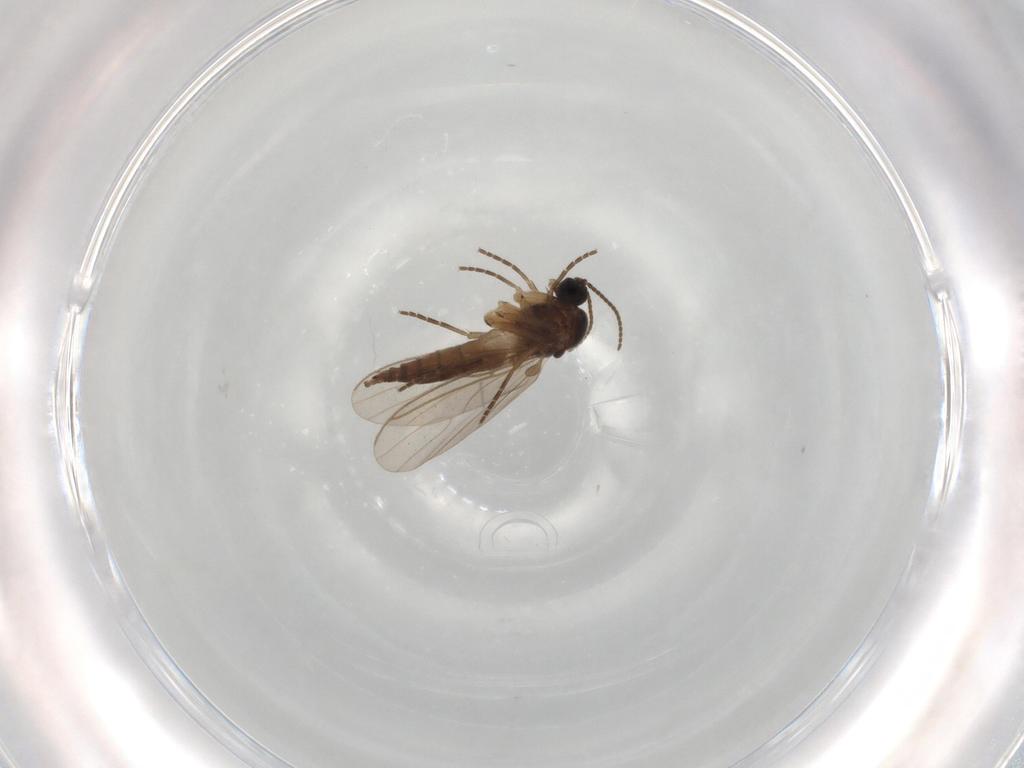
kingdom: Animalia
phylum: Arthropoda
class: Insecta
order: Diptera
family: Sciaridae
